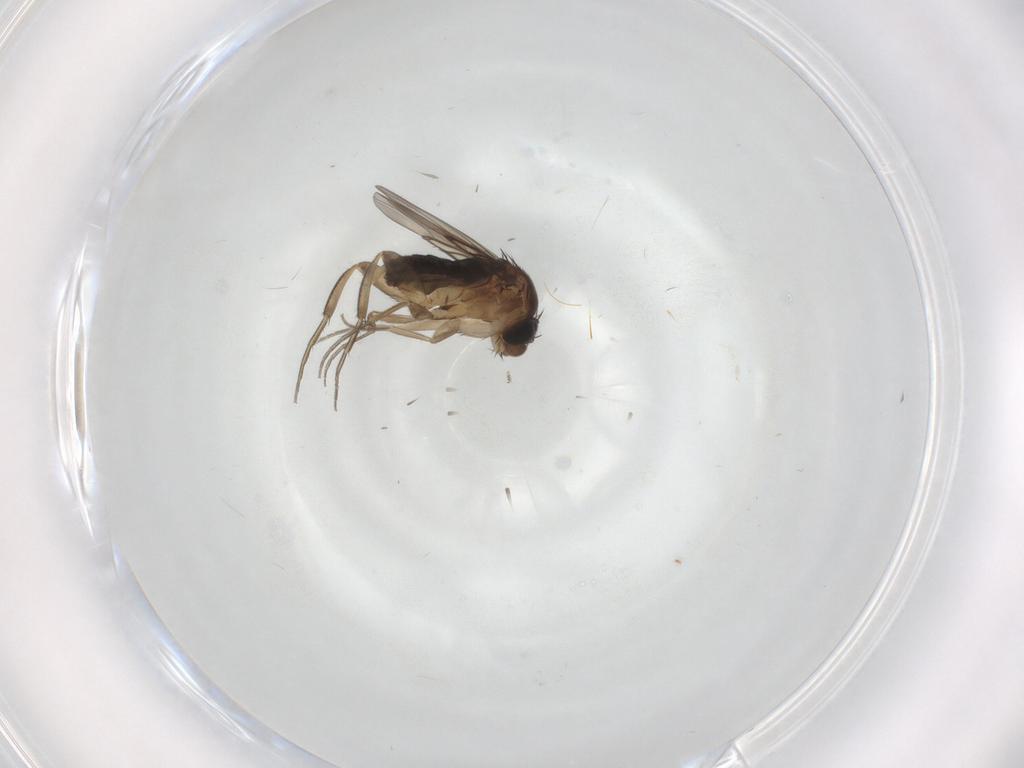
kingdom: Animalia
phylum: Arthropoda
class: Insecta
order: Diptera
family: Phoridae
